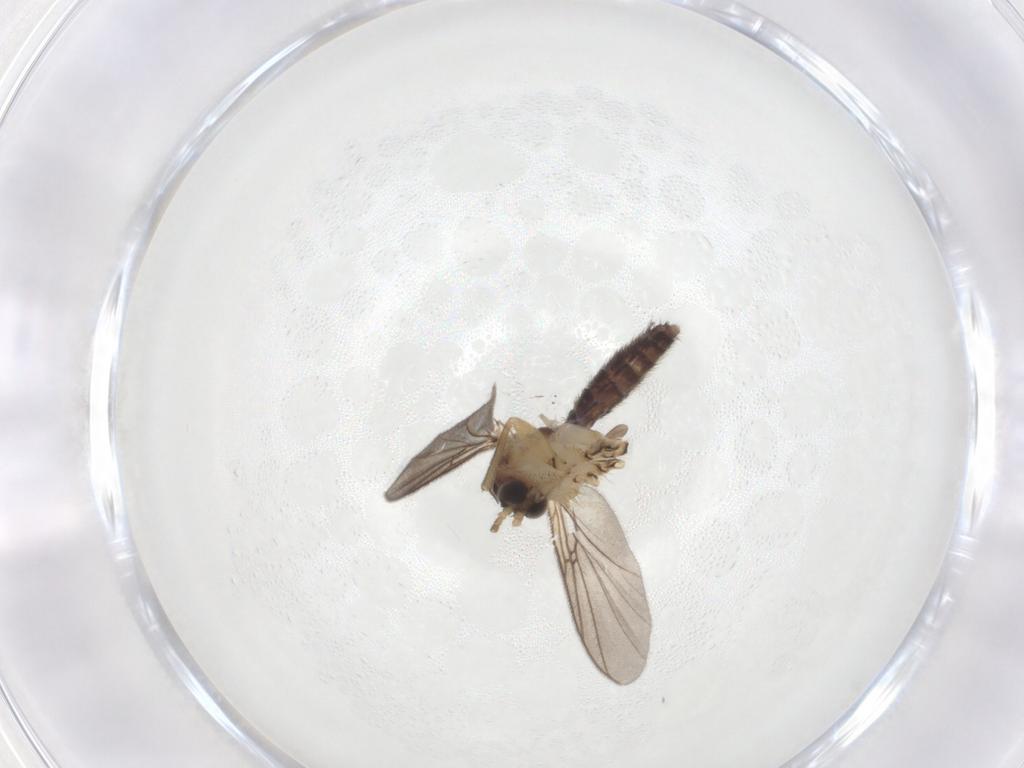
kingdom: Animalia
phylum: Arthropoda
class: Insecta
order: Diptera
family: Mycetophilidae
